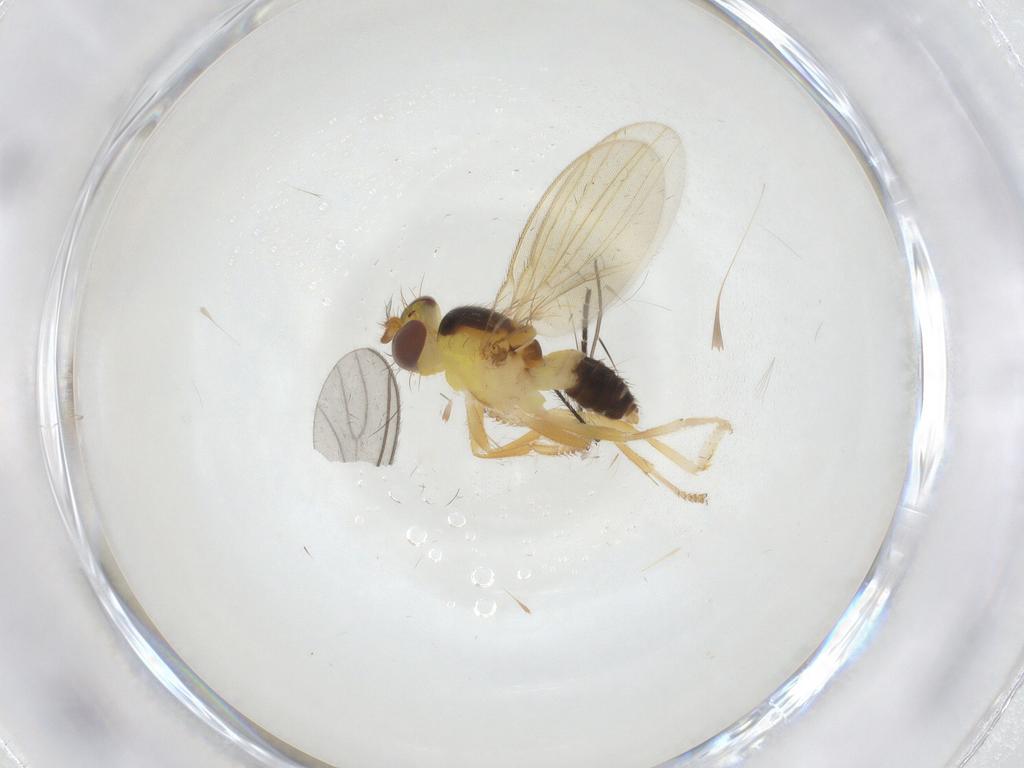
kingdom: Animalia
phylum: Arthropoda
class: Insecta
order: Diptera
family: Periscelididae
